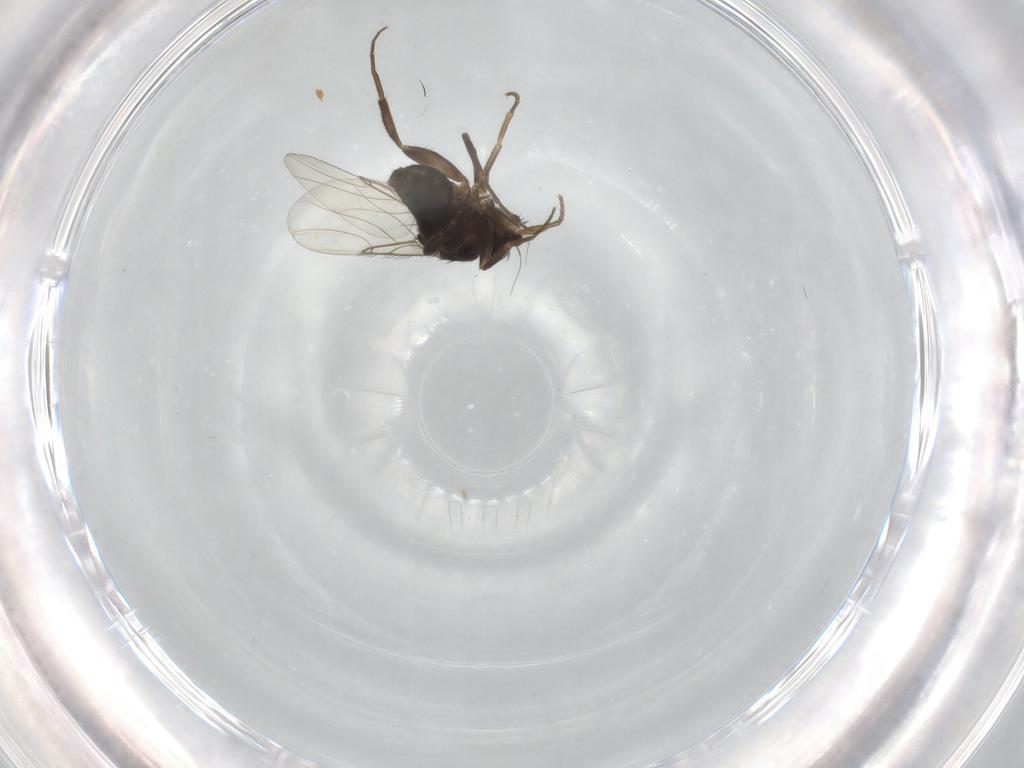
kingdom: Animalia
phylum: Arthropoda
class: Insecta
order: Diptera
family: Phoridae
